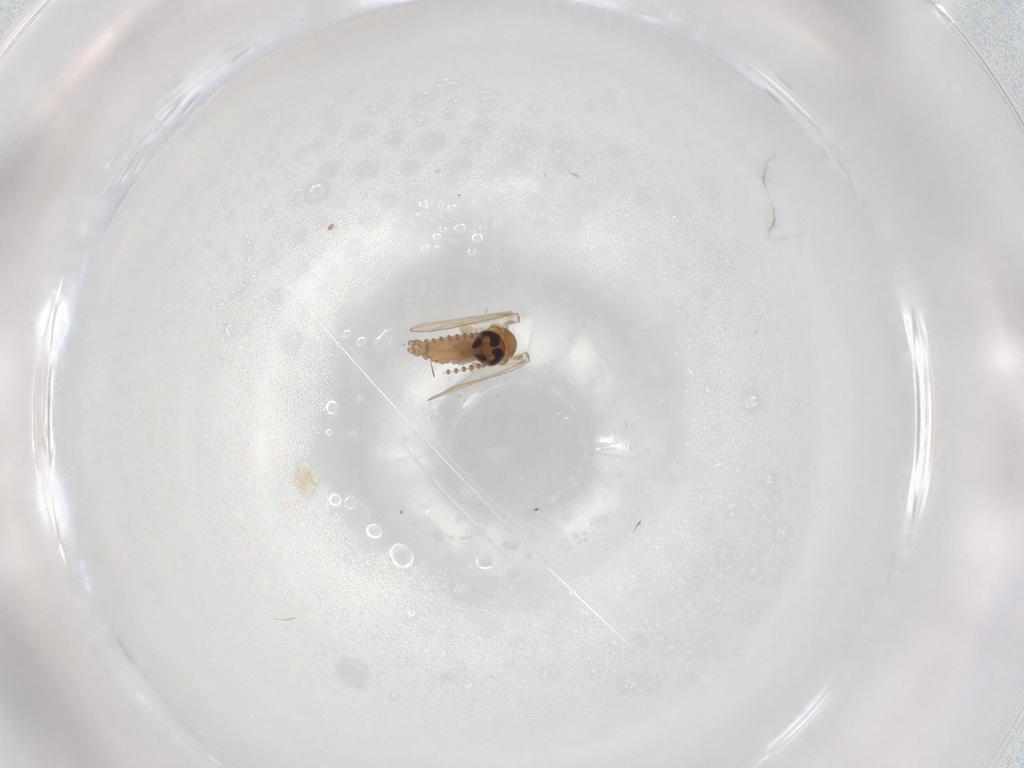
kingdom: Animalia
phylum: Arthropoda
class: Insecta
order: Diptera
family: Psychodidae
